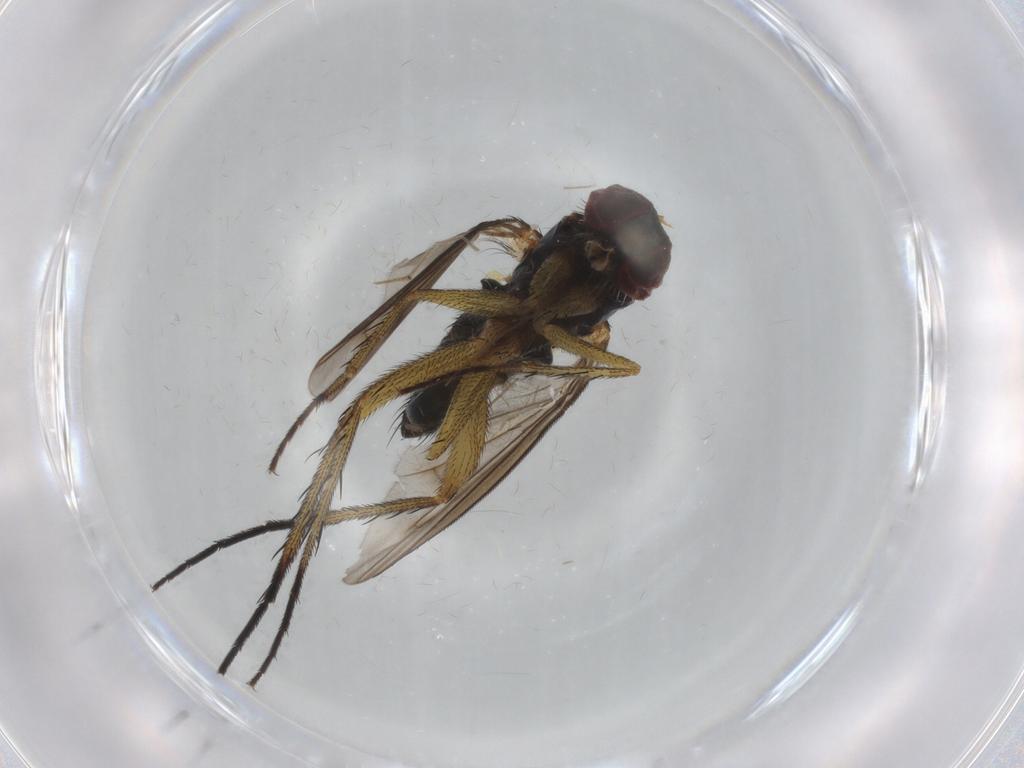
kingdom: Animalia
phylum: Arthropoda
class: Insecta
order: Diptera
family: Dolichopodidae
